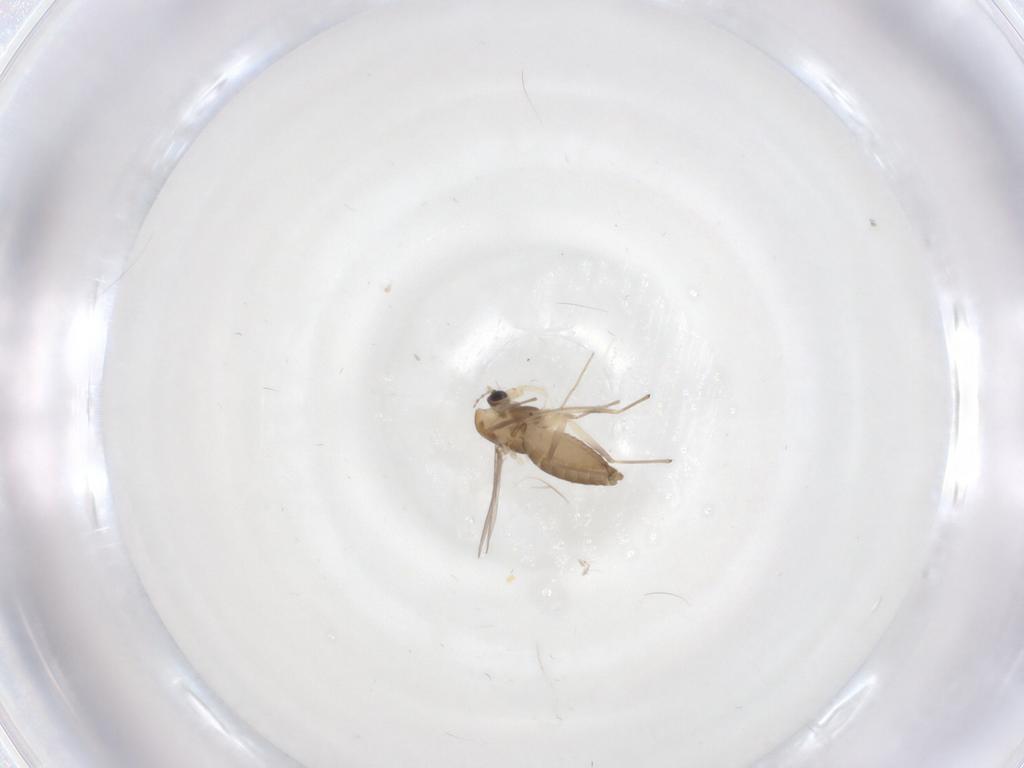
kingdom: Animalia
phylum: Arthropoda
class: Insecta
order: Diptera
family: Chironomidae
